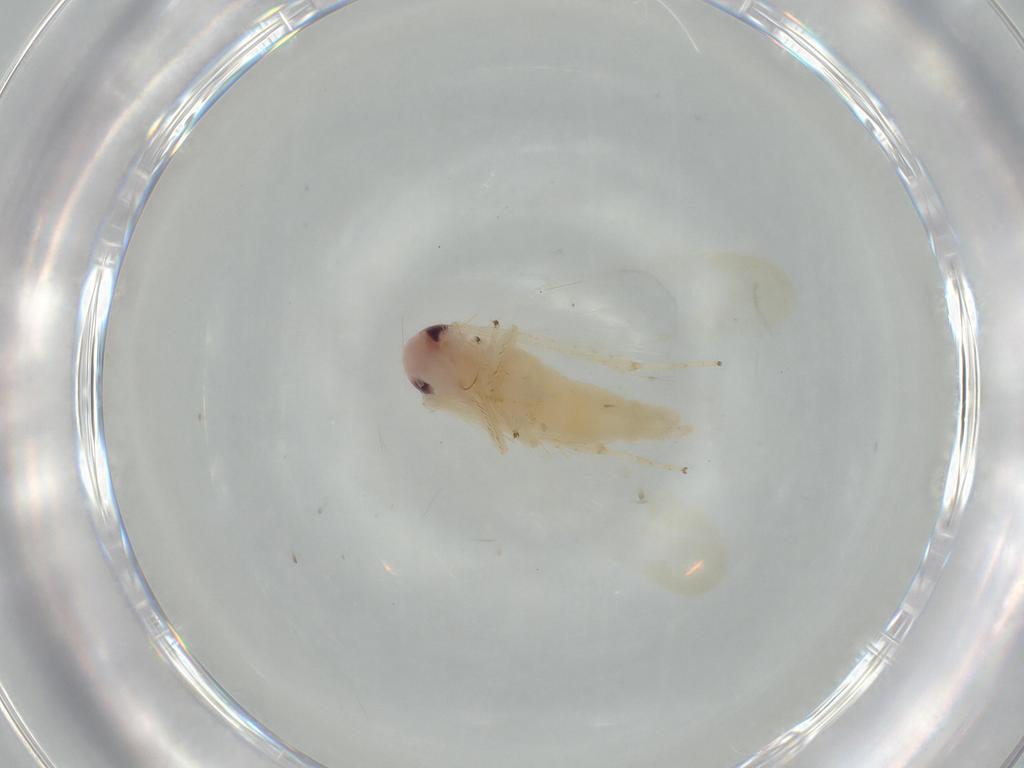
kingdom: Animalia
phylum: Arthropoda
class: Insecta
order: Hemiptera
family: Cicadellidae
